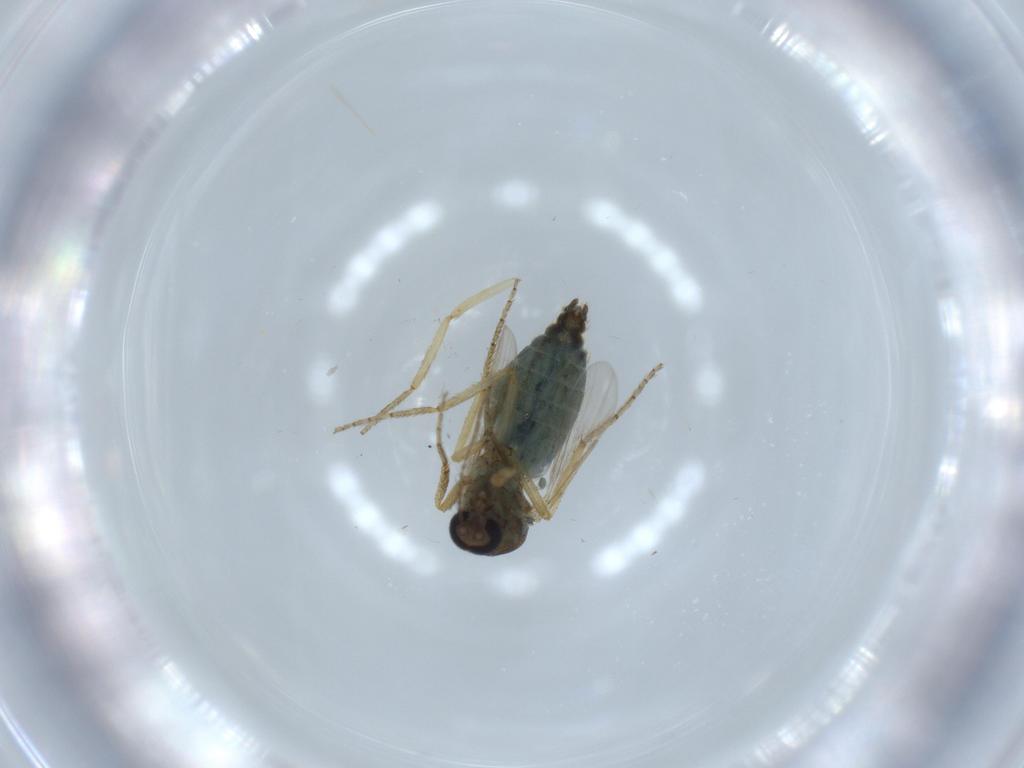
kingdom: Animalia
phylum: Arthropoda
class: Insecta
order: Diptera
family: Ceratopogonidae
